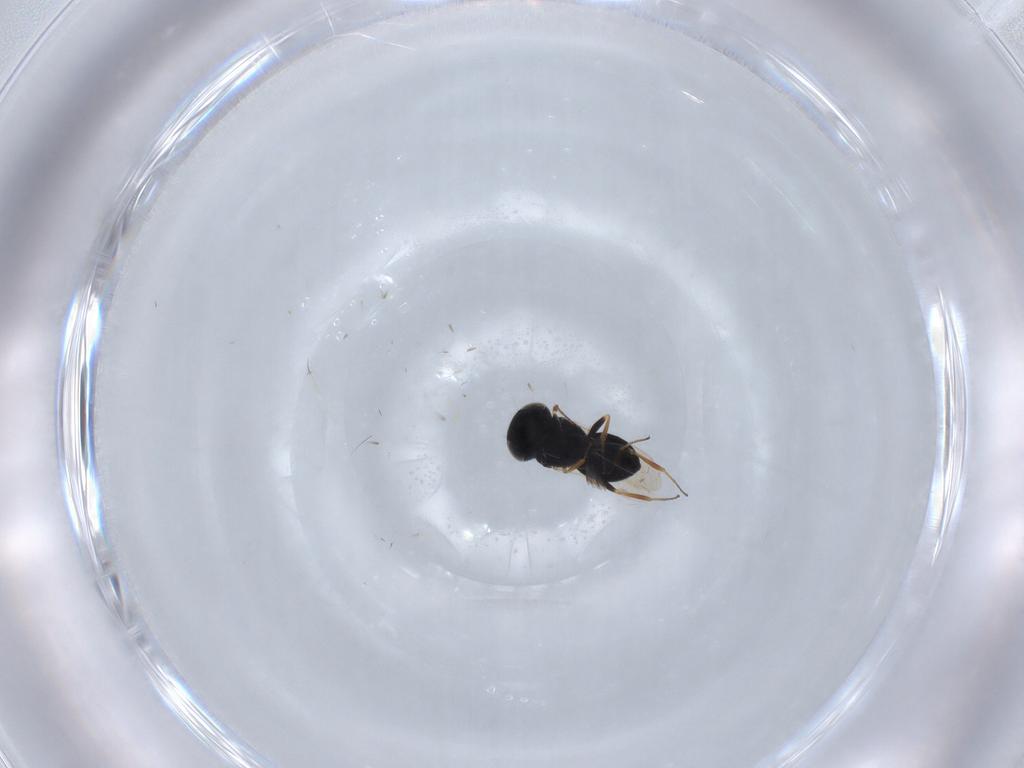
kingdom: Animalia
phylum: Arthropoda
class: Insecta
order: Hymenoptera
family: Scelionidae
